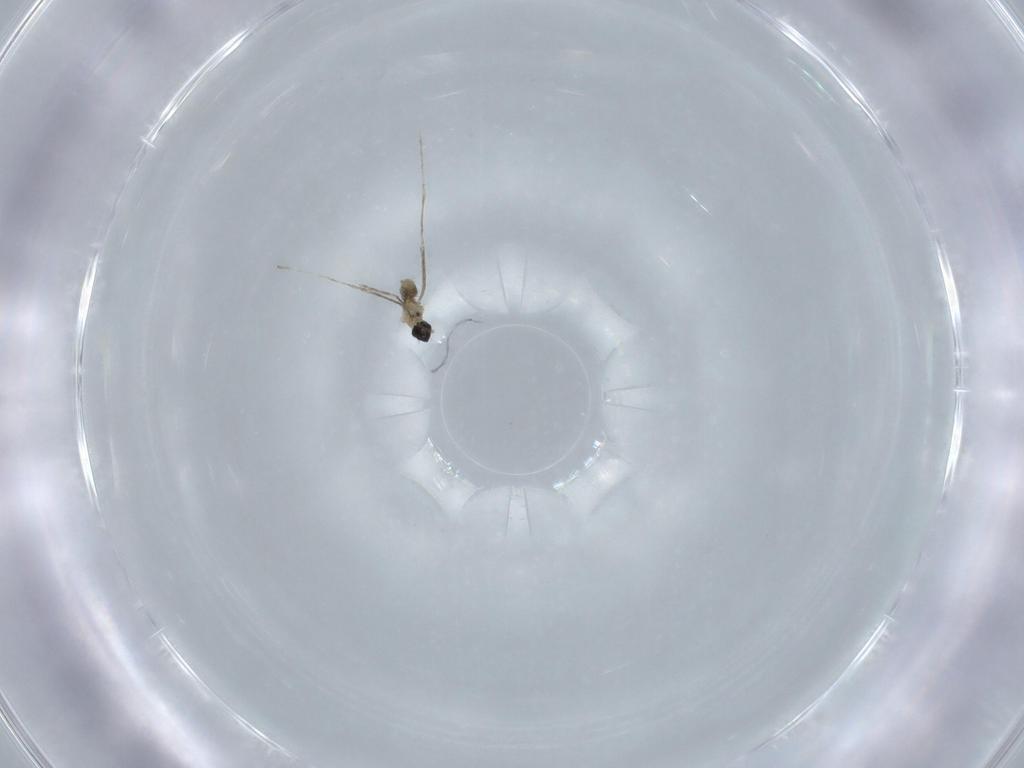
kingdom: Animalia
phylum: Arthropoda
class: Insecta
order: Diptera
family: Cecidomyiidae
